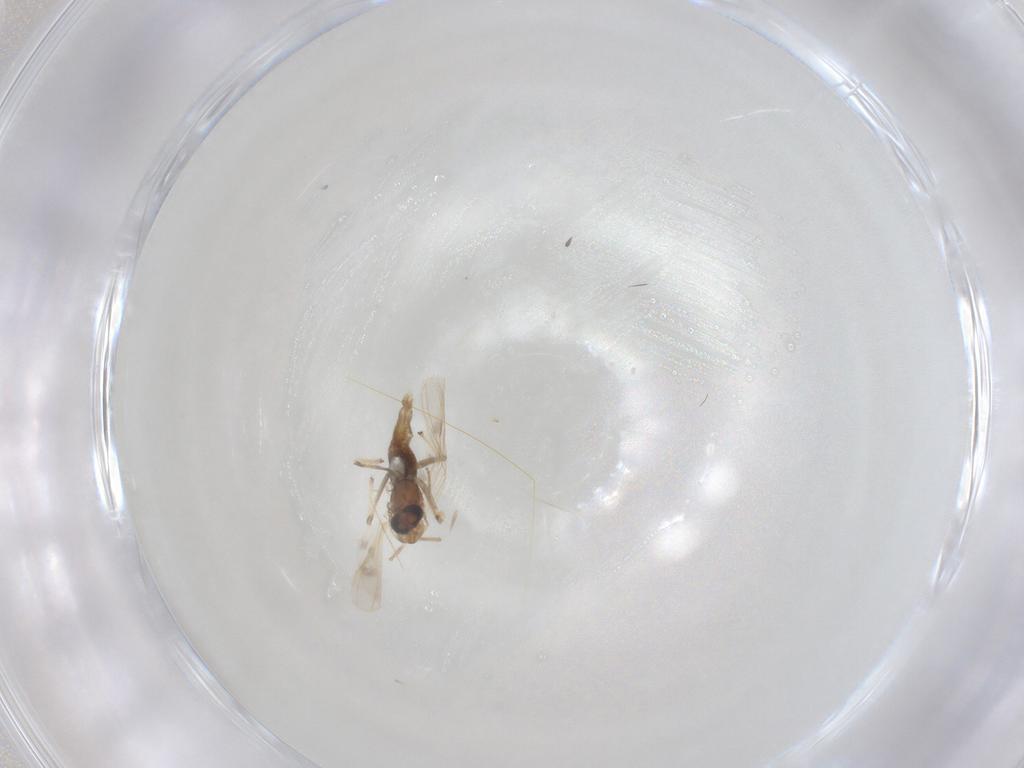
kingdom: Animalia
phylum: Arthropoda
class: Insecta
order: Diptera
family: Chironomidae
